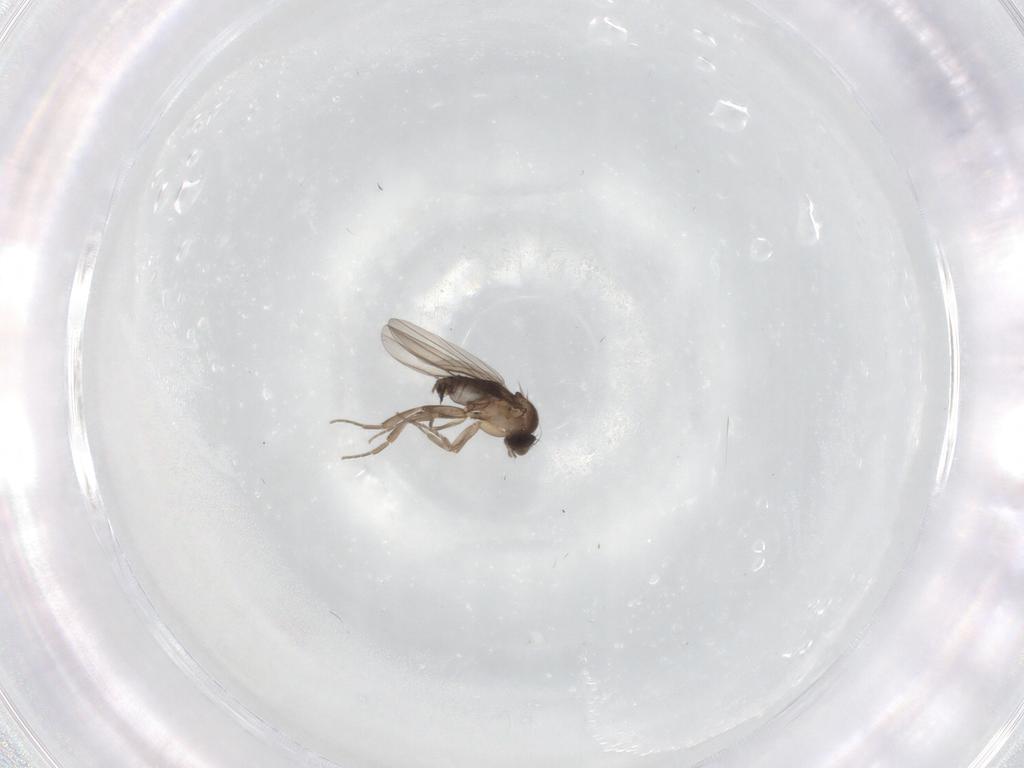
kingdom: Animalia
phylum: Arthropoda
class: Insecta
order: Diptera
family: Phoridae
